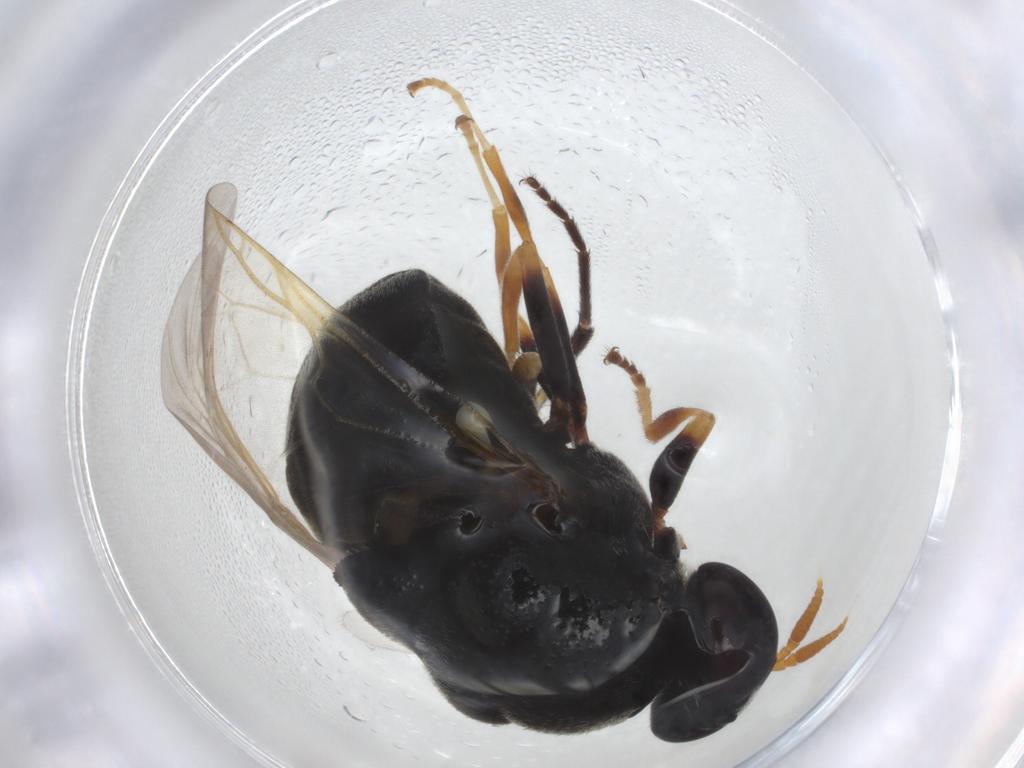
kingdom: Animalia
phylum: Arthropoda
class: Insecta
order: Diptera
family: Stratiomyidae
